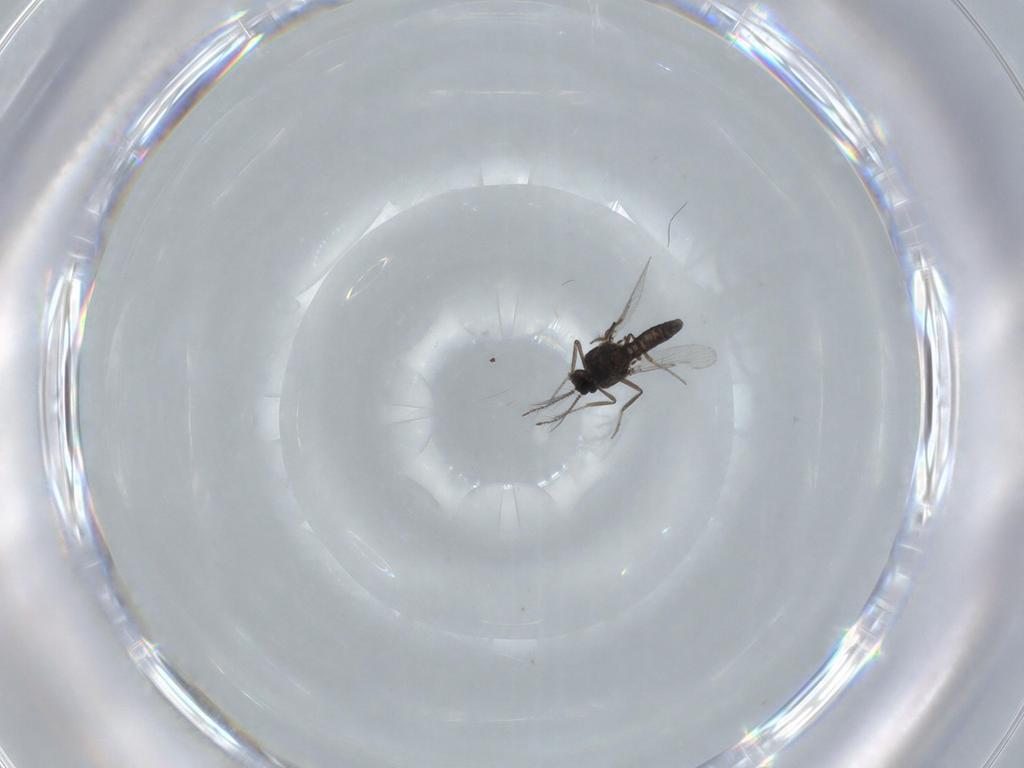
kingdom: Animalia
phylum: Arthropoda
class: Insecta
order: Diptera
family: Ceratopogonidae
